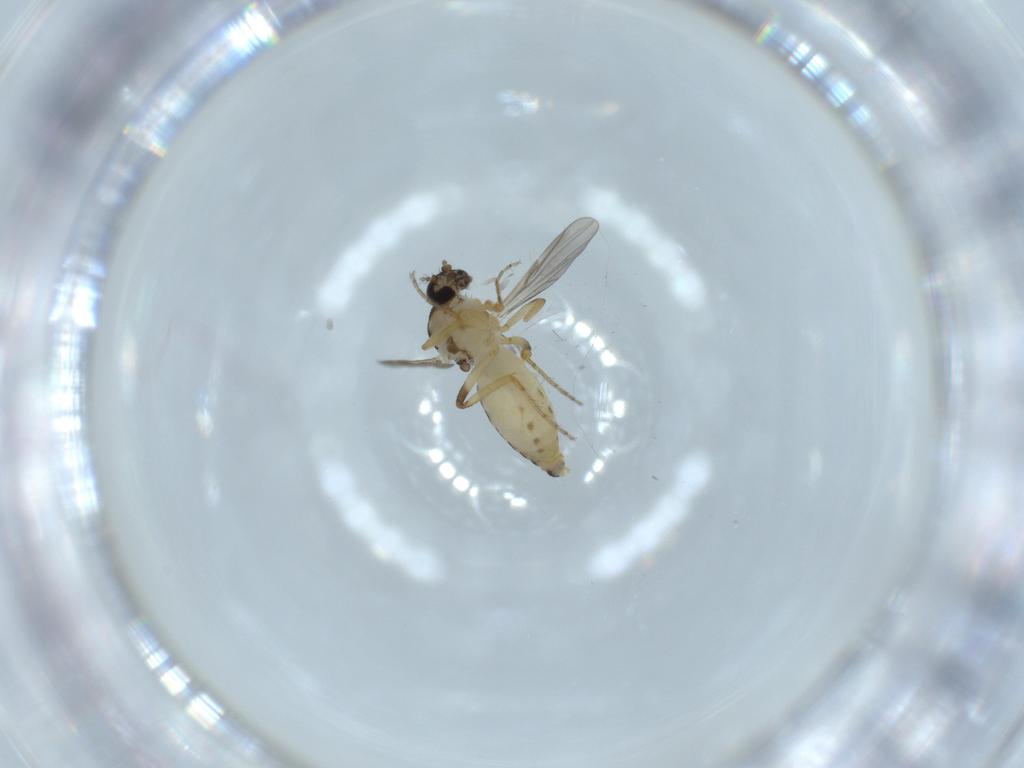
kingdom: Animalia
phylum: Arthropoda
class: Insecta
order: Diptera
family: Ceratopogonidae
